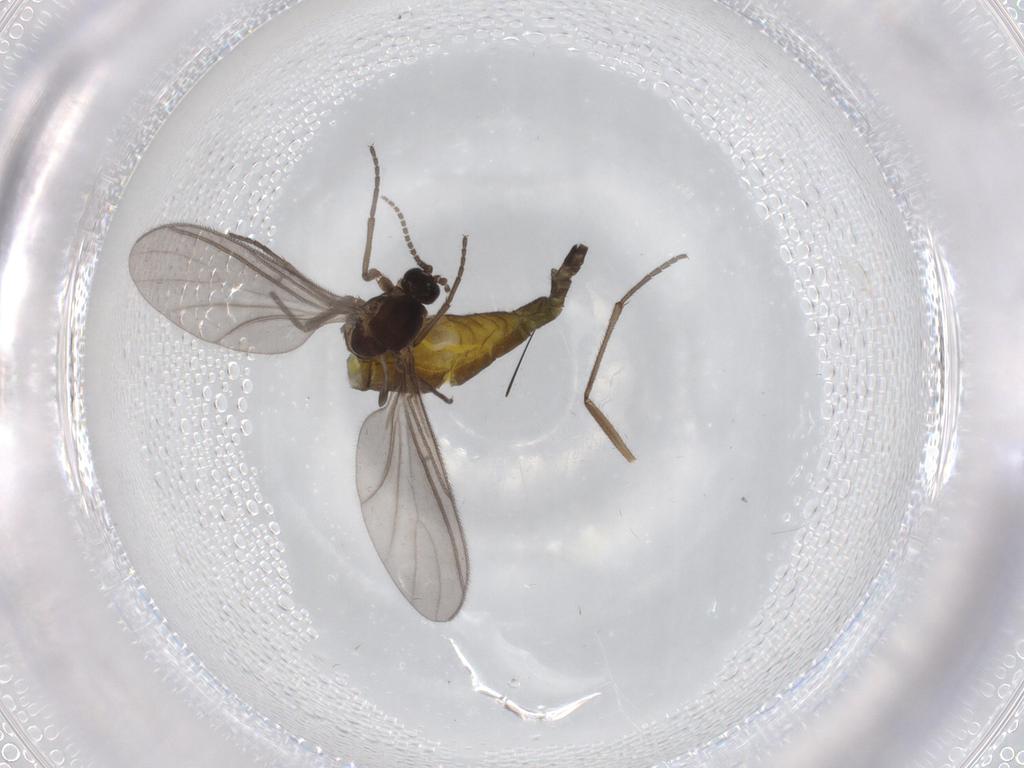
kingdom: Animalia
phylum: Arthropoda
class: Insecta
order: Diptera
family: Sciaridae
